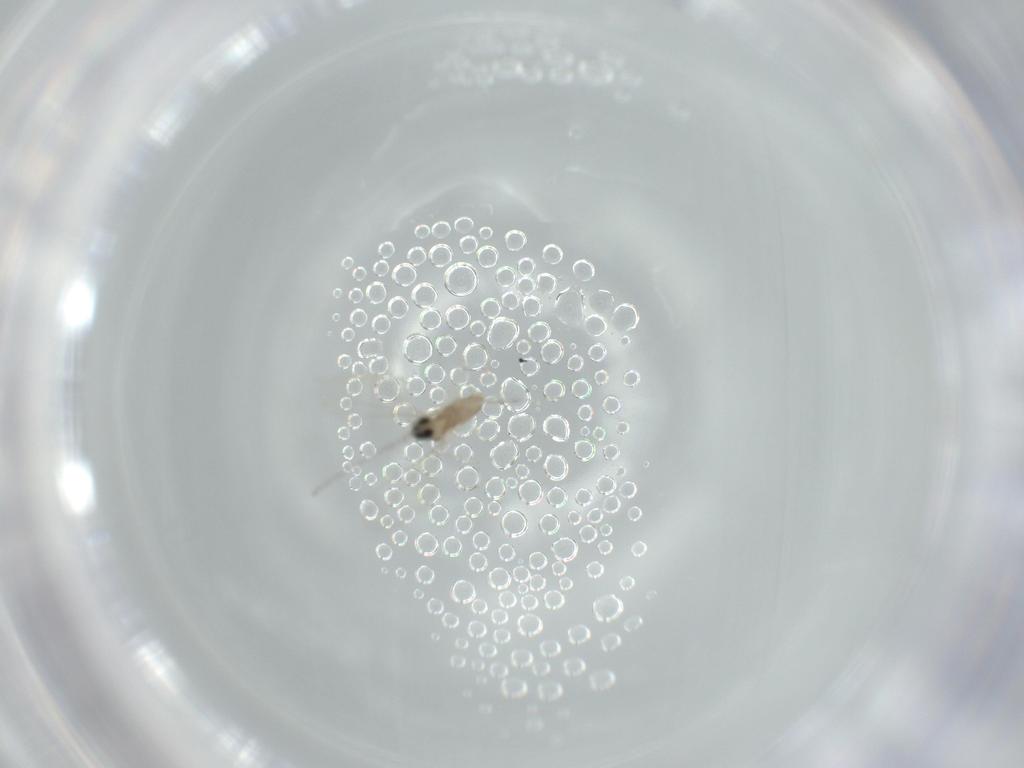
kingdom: Animalia
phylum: Arthropoda
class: Insecta
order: Diptera
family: Cecidomyiidae
